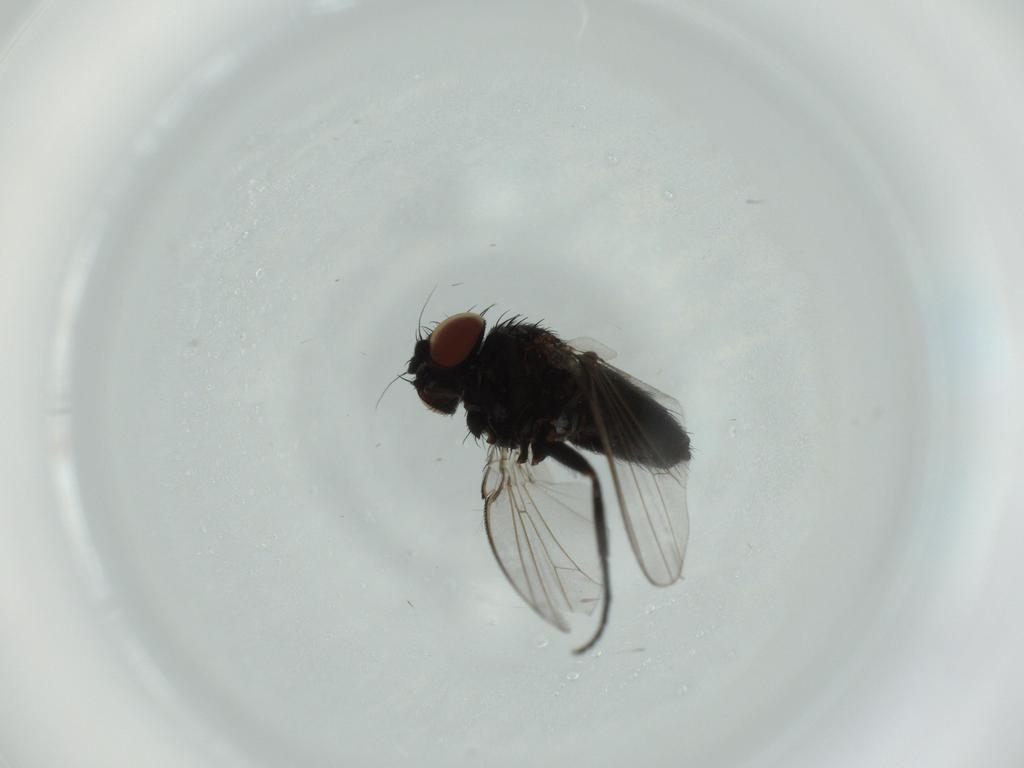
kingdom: Animalia
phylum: Arthropoda
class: Insecta
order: Diptera
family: Milichiidae
